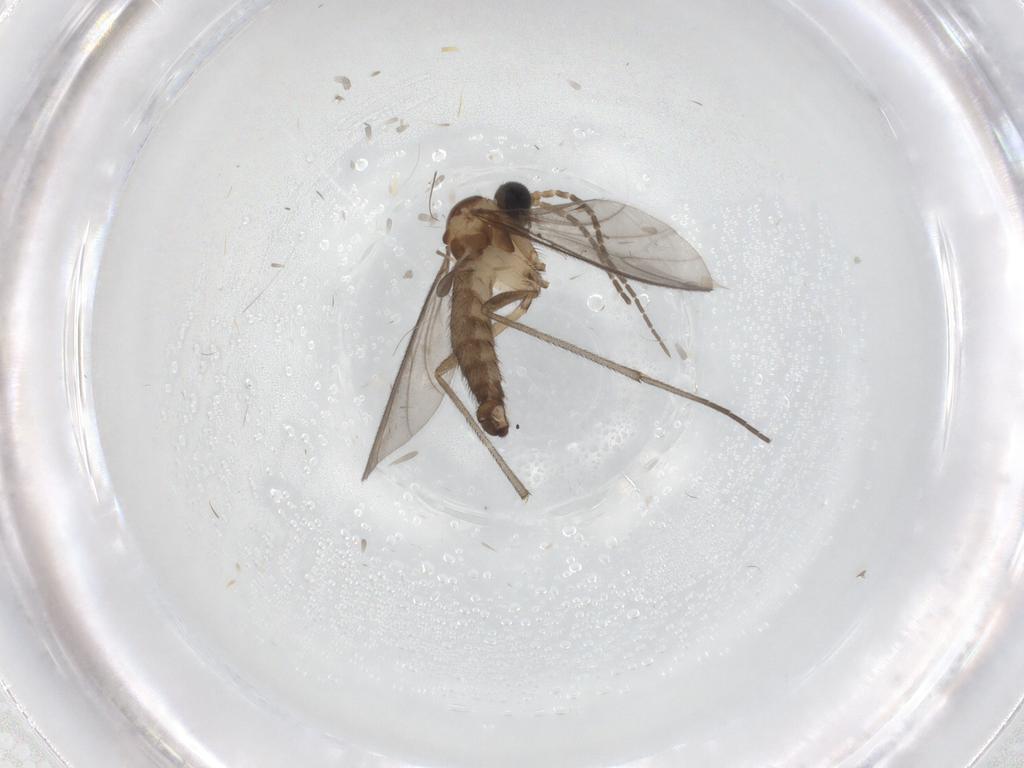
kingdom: Animalia
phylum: Arthropoda
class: Insecta
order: Diptera
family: Sciaridae
